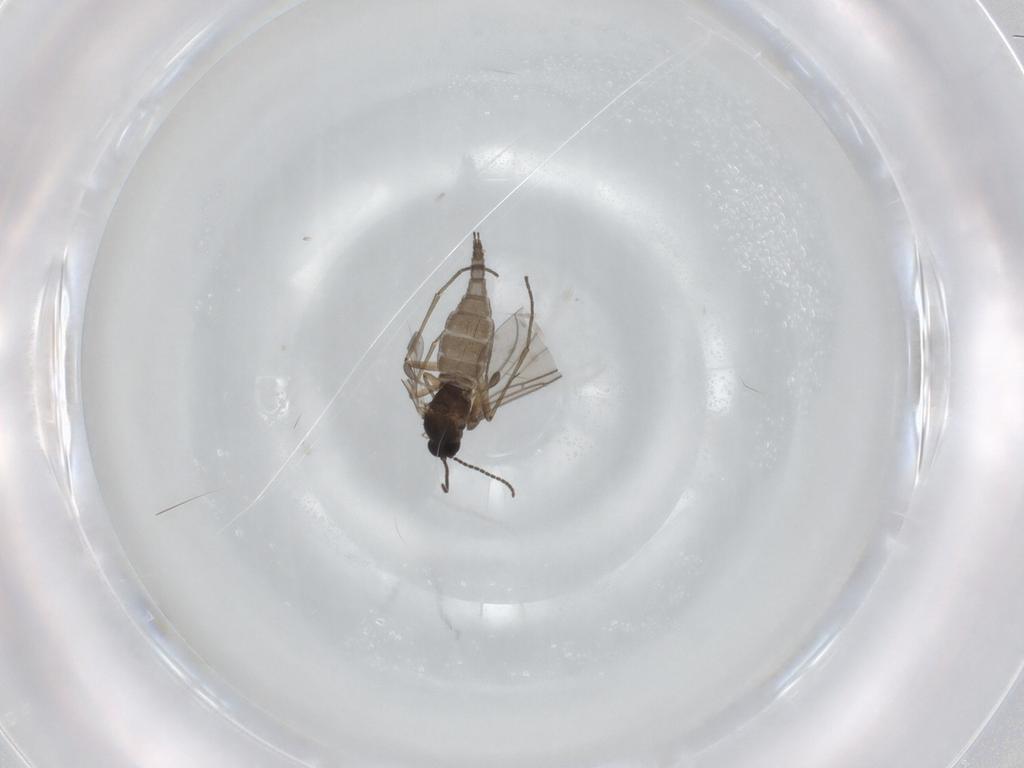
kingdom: Animalia
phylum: Arthropoda
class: Insecta
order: Diptera
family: Sciaridae
